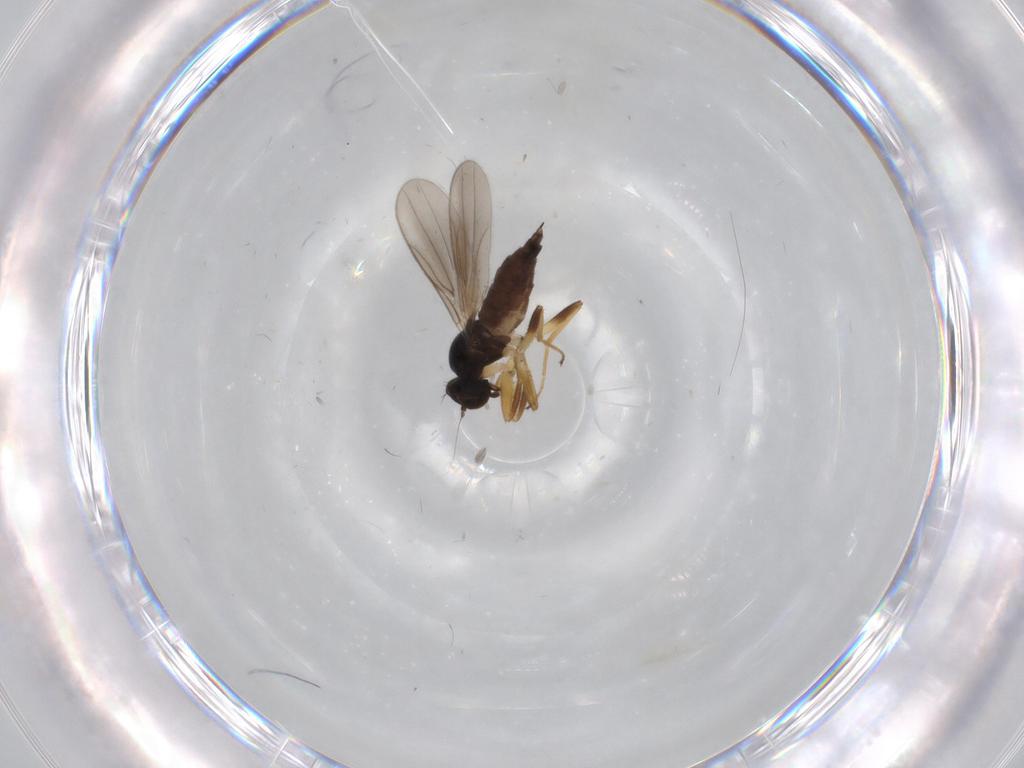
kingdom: Animalia
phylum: Arthropoda
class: Insecta
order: Diptera
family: Hybotidae
